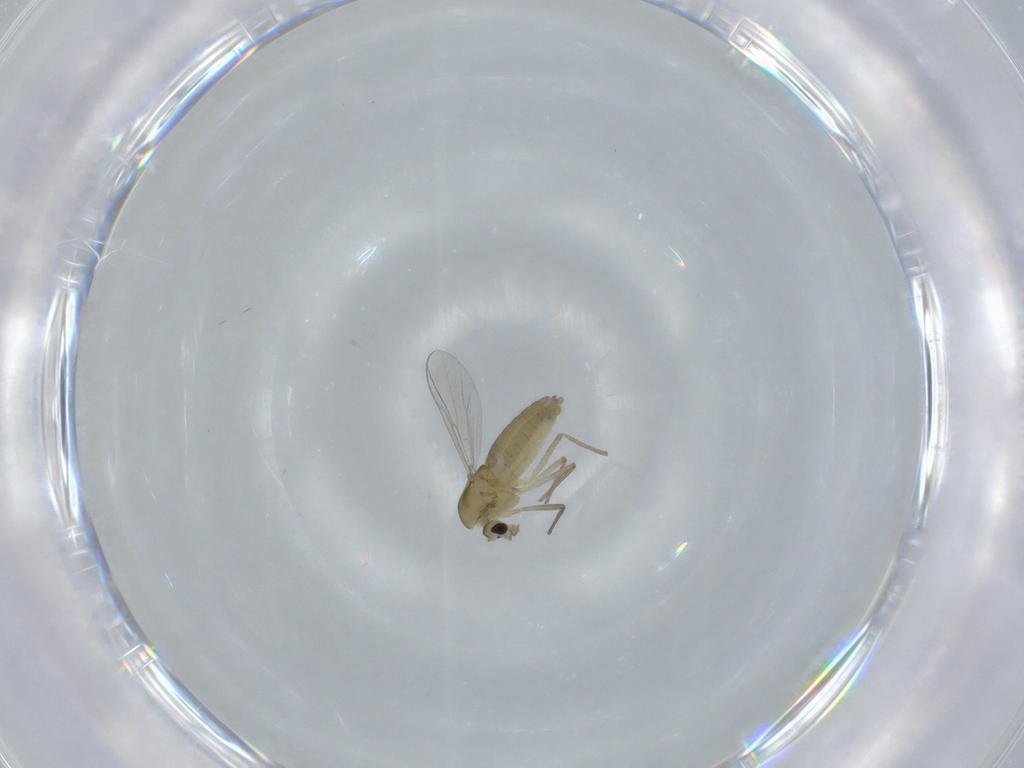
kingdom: Animalia
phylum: Arthropoda
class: Insecta
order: Diptera
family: Chironomidae
